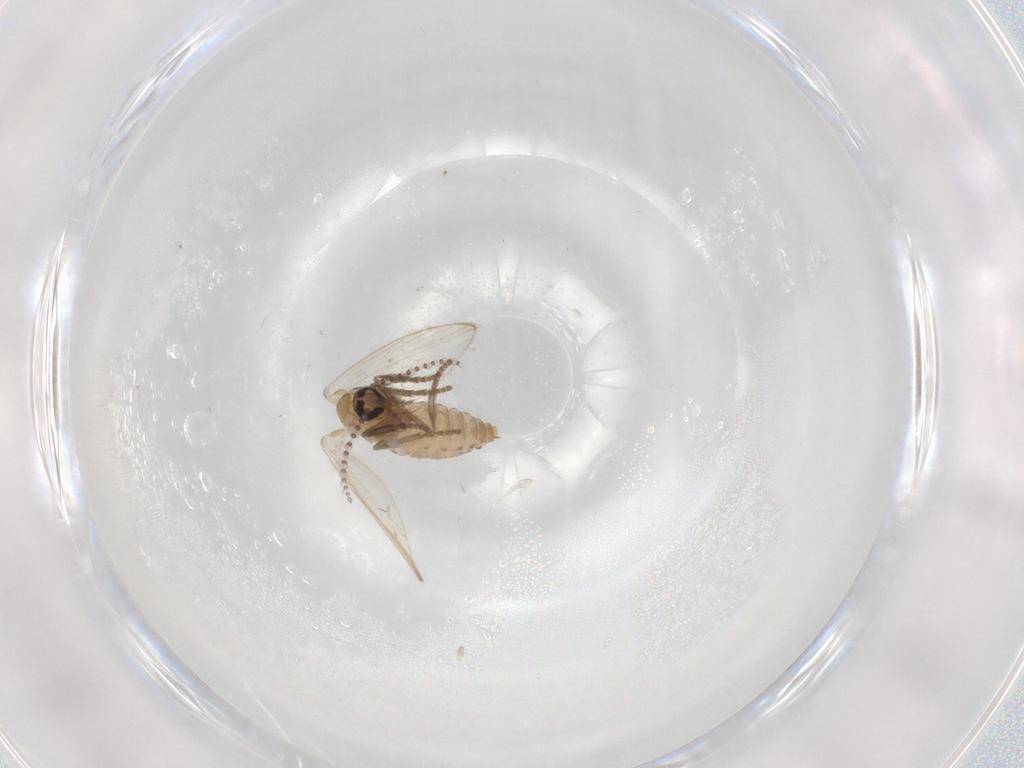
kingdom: Animalia
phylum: Arthropoda
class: Insecta
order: Diptera
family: Psychodidae
